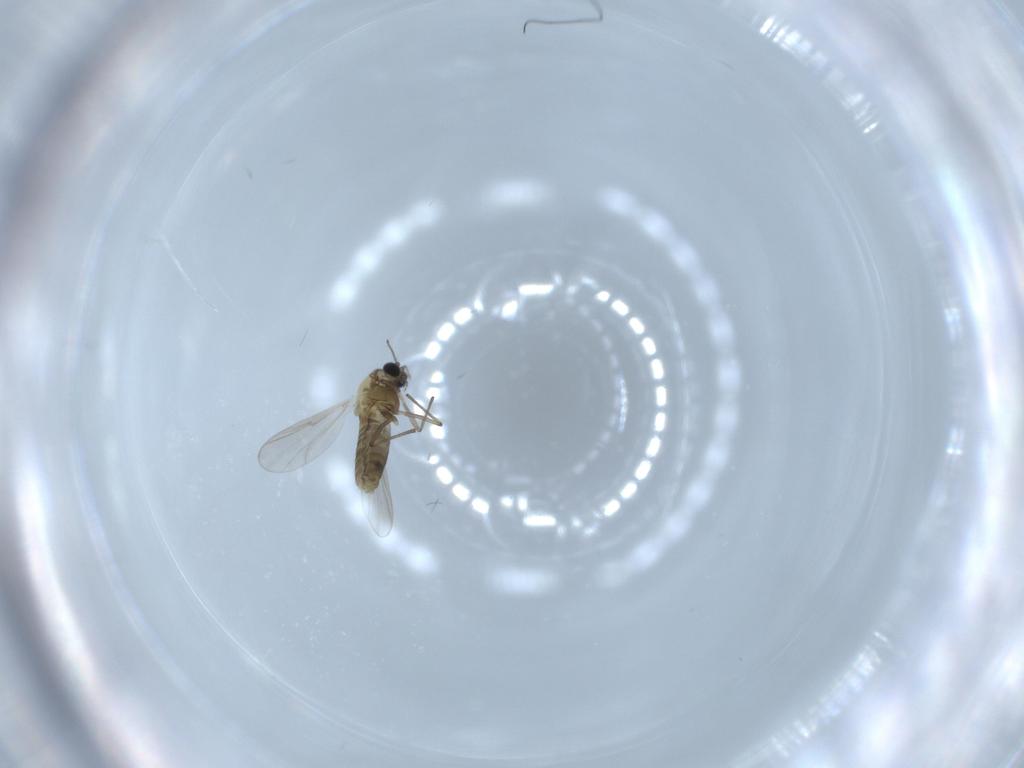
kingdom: Animalia
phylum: Arthropoda
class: Insecta
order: Diptera
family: Chironomidae
